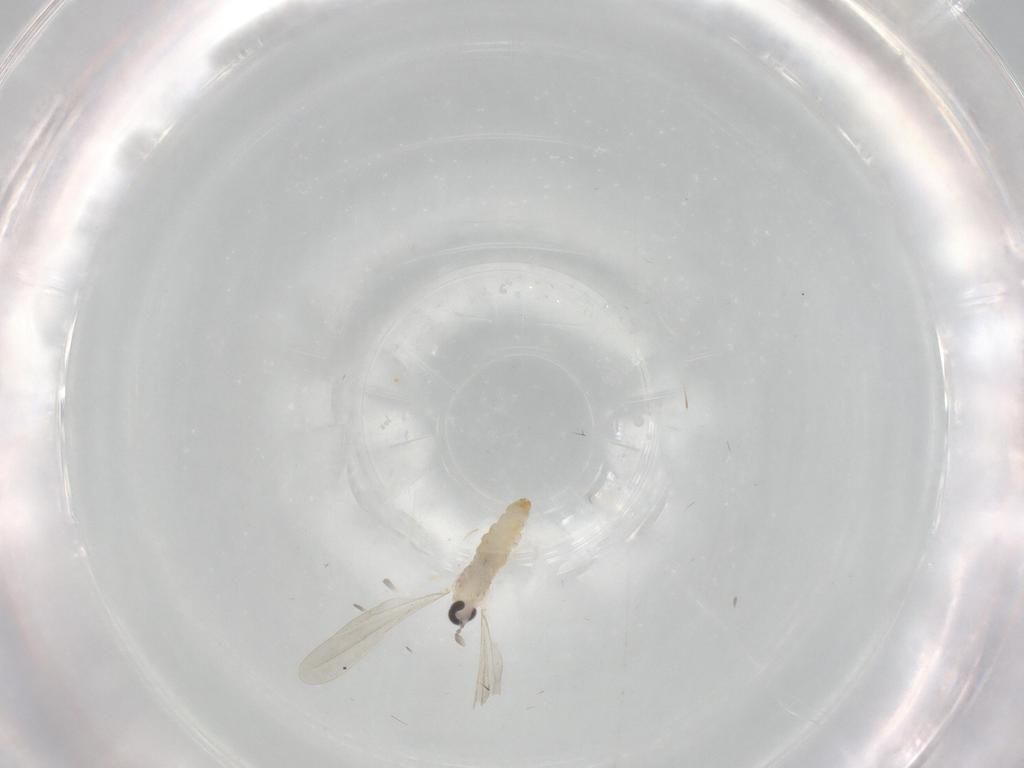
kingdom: Animalia
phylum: Arthropoda
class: Insecta
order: Diptera
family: Cecidomyiidae
